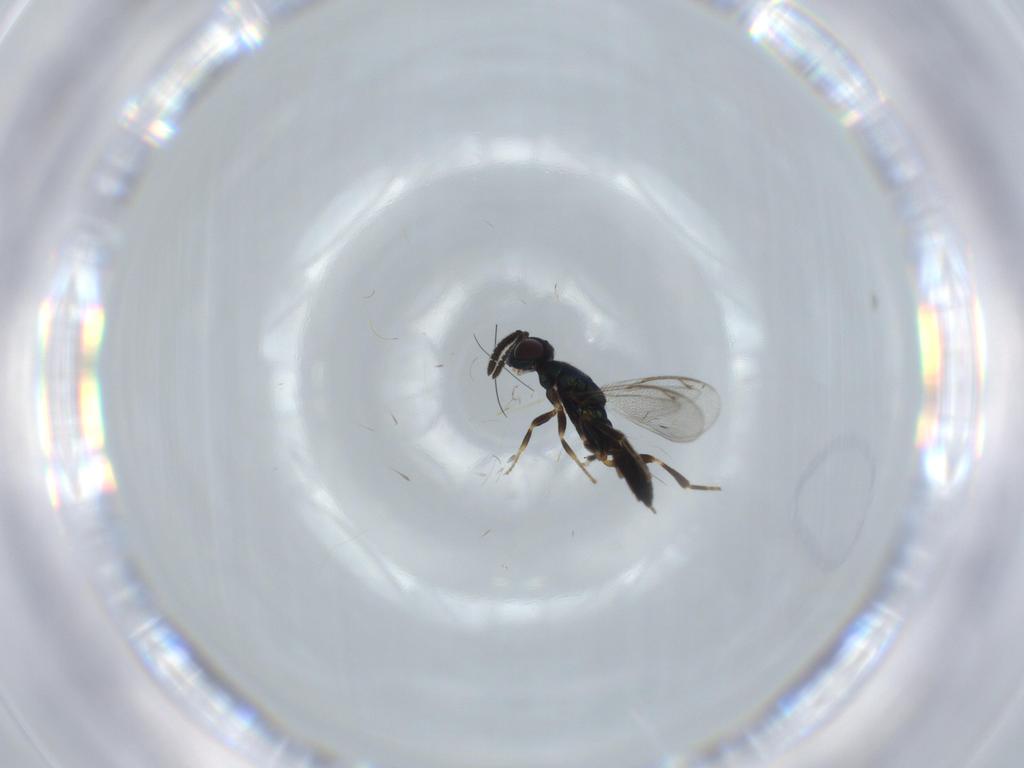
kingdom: Animalia
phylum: Arthropoda
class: Insecta
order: Hymenoptera
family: Cleonyminae
